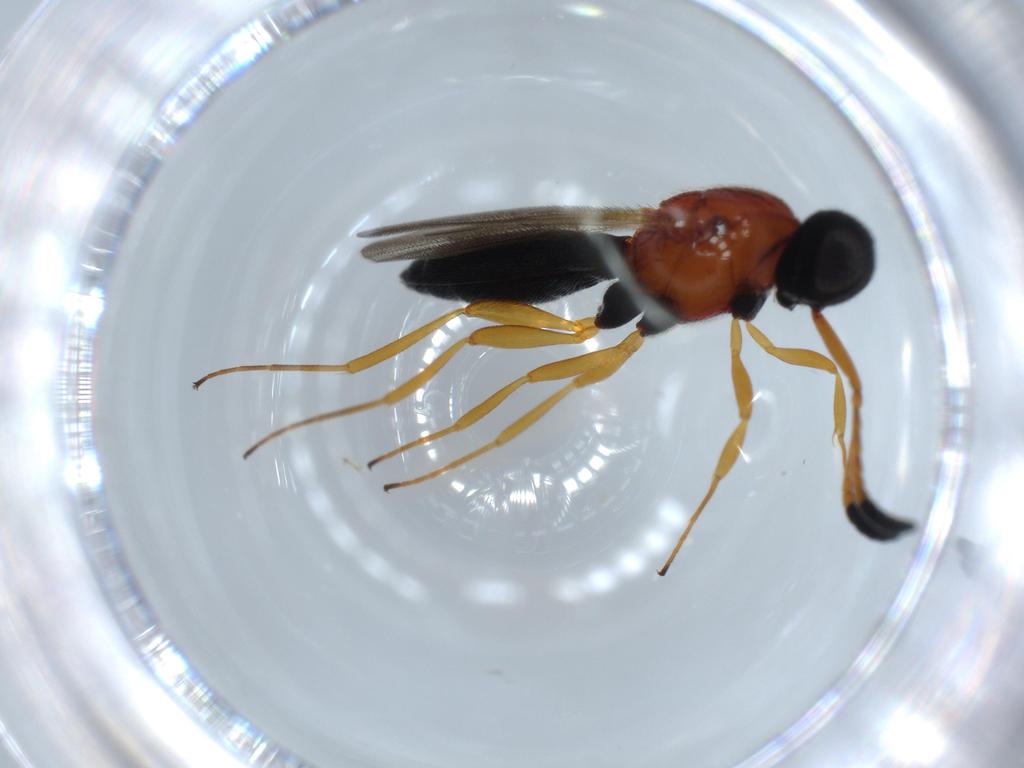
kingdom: Animalia
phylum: Arthropoda
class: Insecta
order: Hymenoptera
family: Scelionidae
